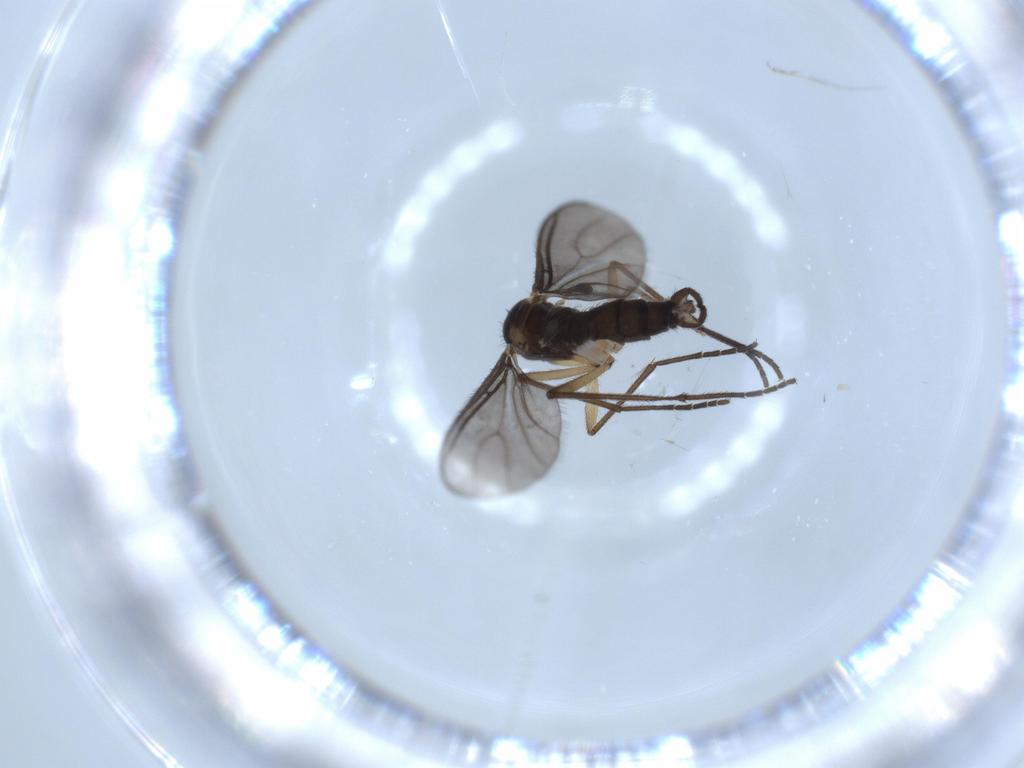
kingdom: Animalia
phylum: Arthropoda
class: Insecta
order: Diptera
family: Sciaridae
